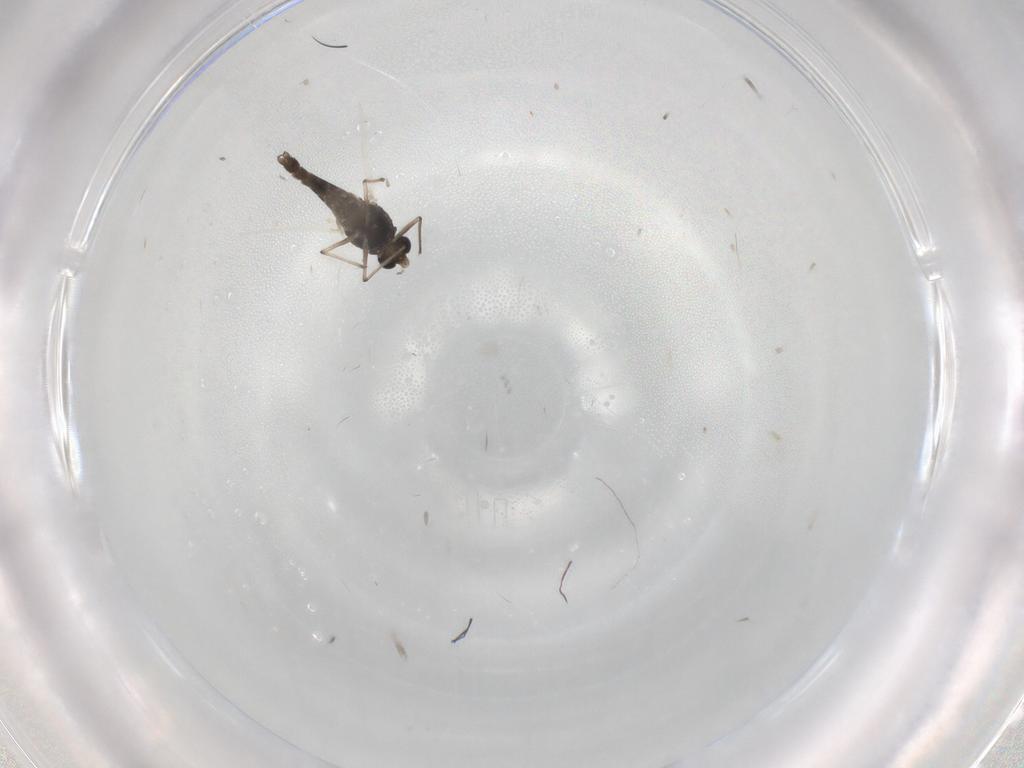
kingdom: Animalia
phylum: Arthropoda
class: Insecta
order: Diptera
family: Chironomidae
